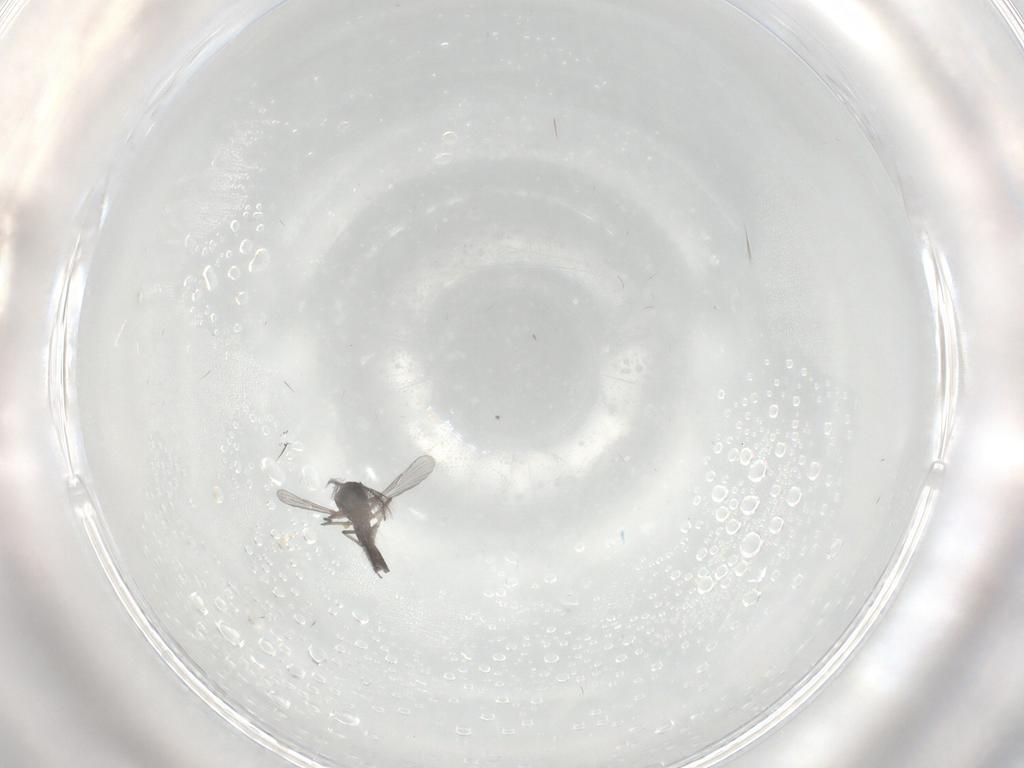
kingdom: Animalia
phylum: Arthropoda
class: Insecta
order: Diptera
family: Ceratopogonidae
